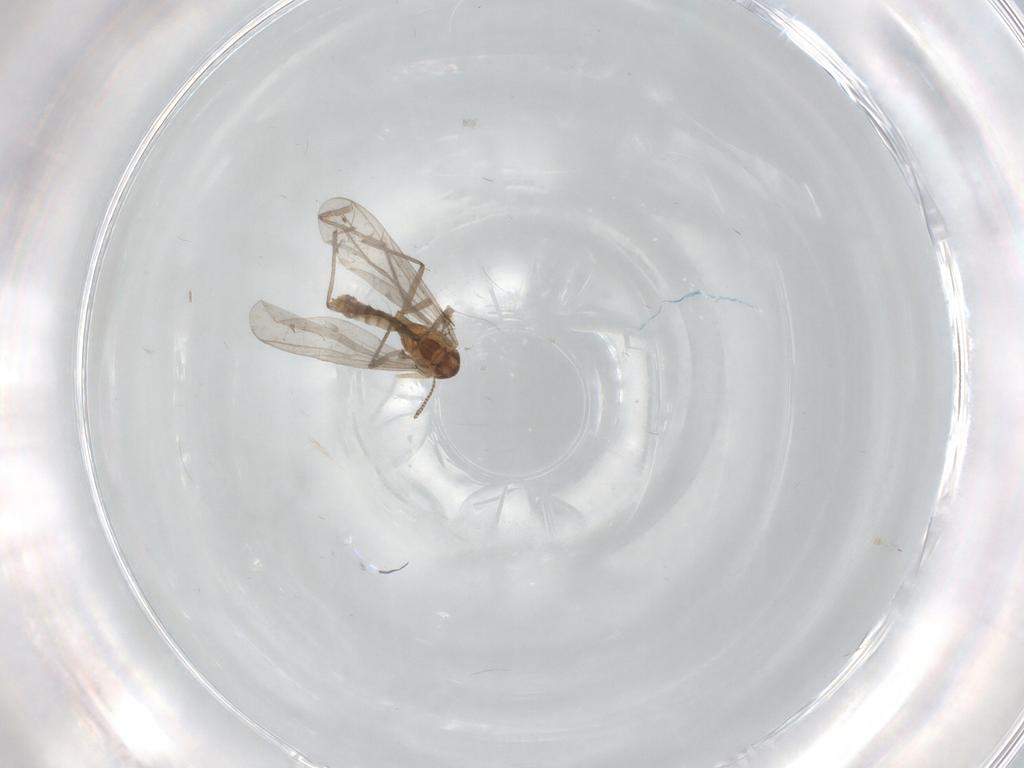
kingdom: Animalia
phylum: Arthropoda
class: Insecta
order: Diptera
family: Chironomidae
